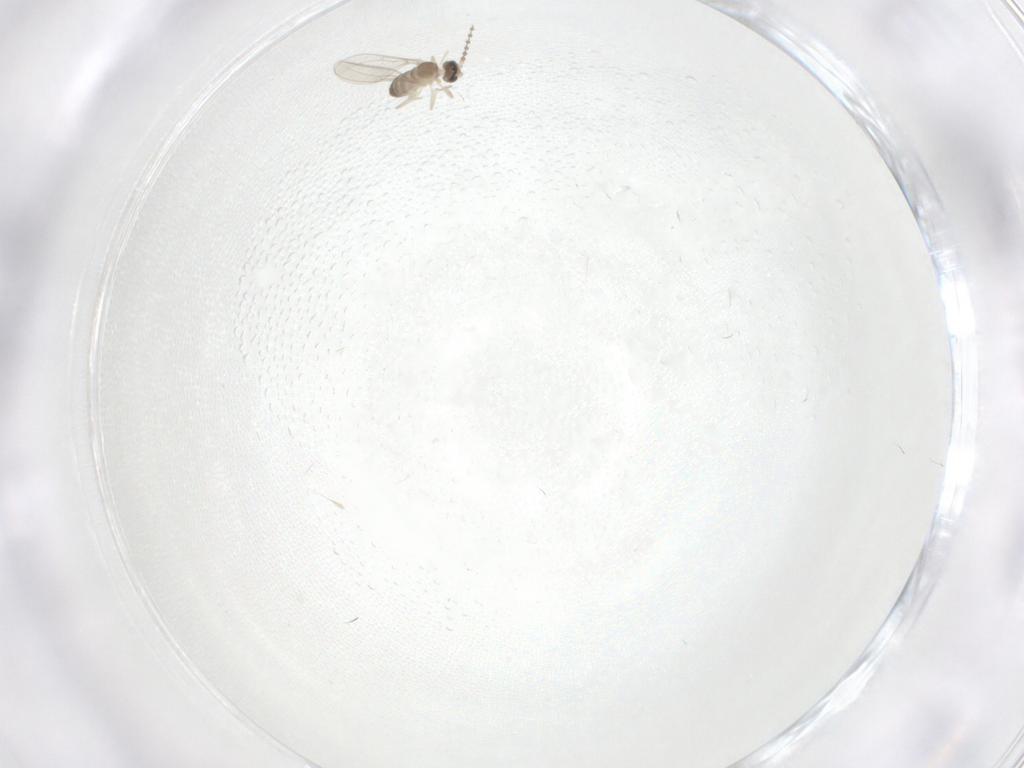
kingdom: Animalia
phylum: Arthropoda
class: Insecta
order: Diptera
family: Cecidomyiidae
